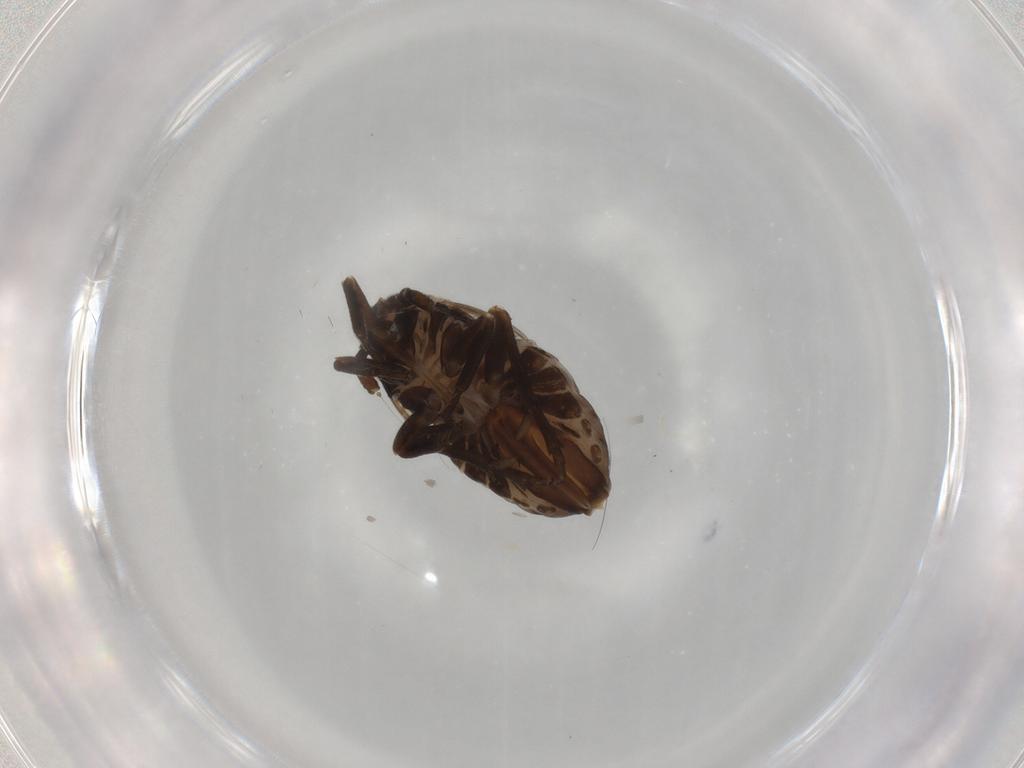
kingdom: Animalia
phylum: Arthropoda
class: Insecta
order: Hemiptera
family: Delphacidae
